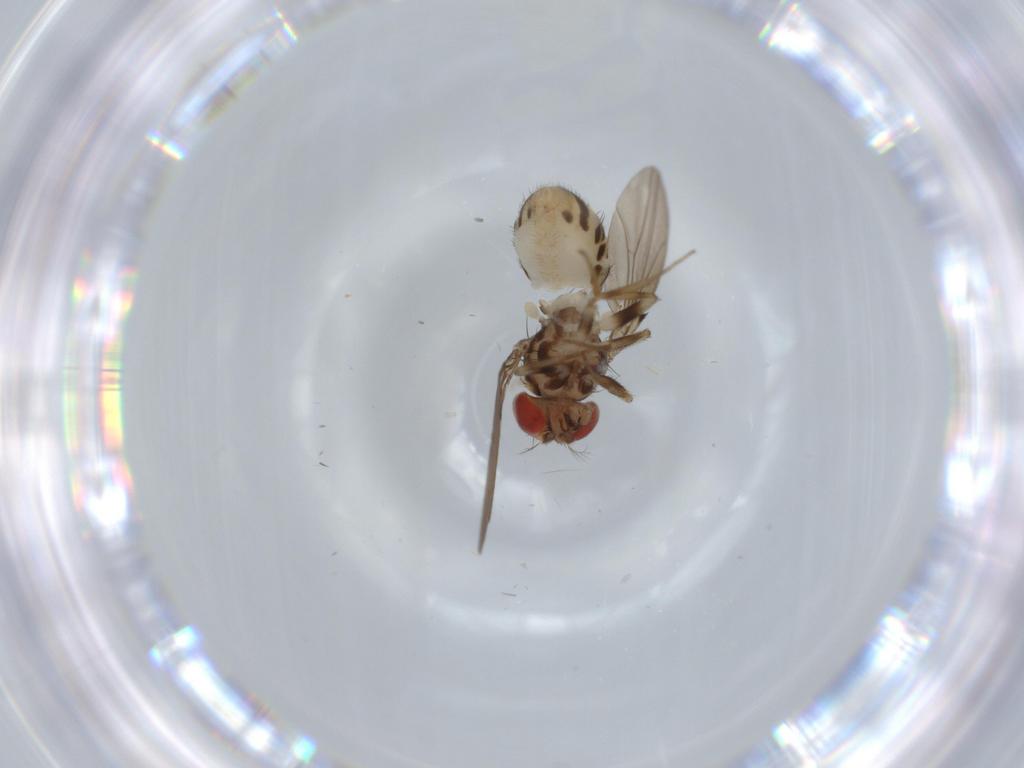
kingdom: Animalia
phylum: Arthropoda
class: Insecta
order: Diptera
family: Drosophilidae
